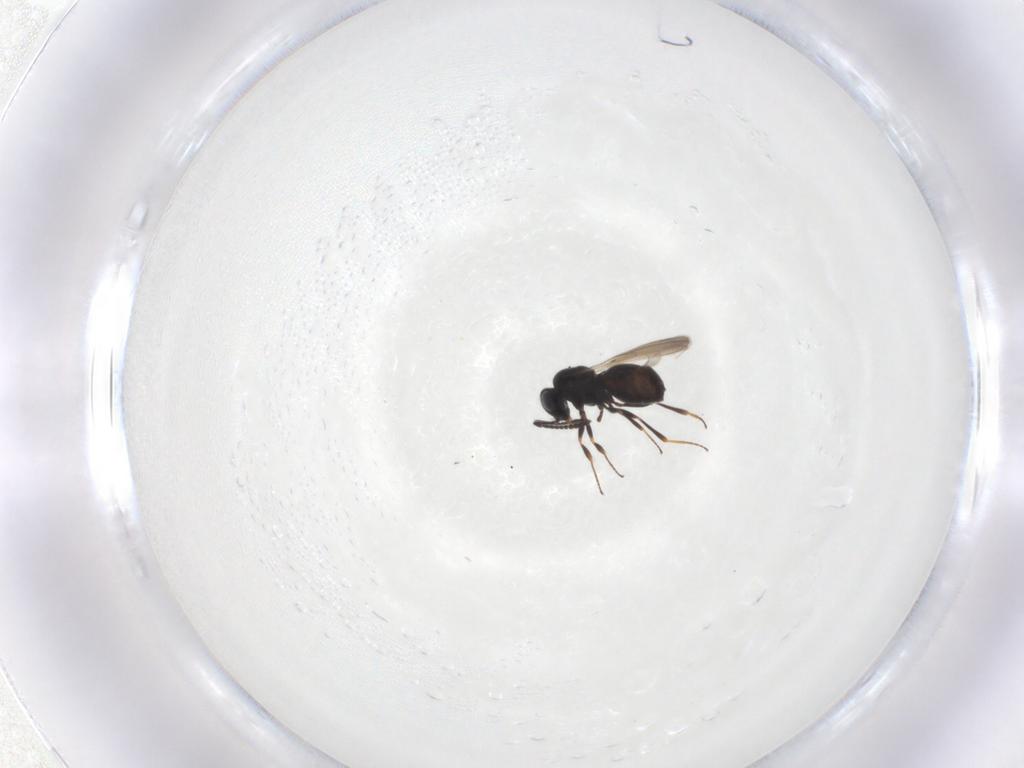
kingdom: Animalia
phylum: Arthropoda
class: Insecta
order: Hymenoptera
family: Scelionidae
